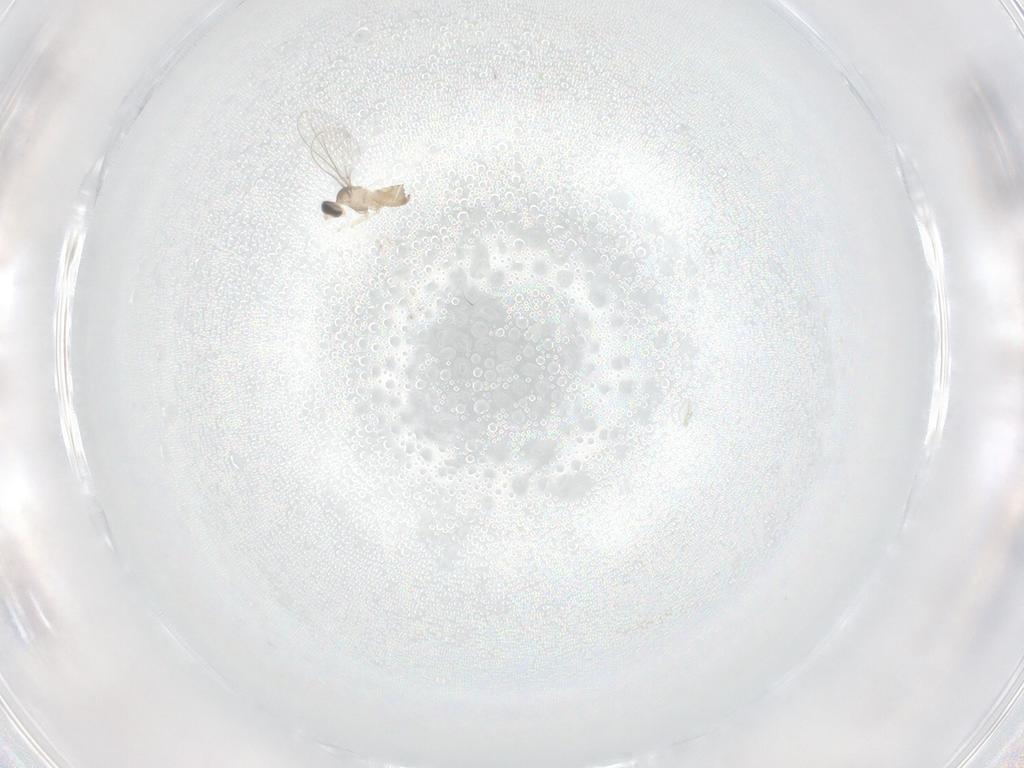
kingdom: Animalia
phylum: Arthropoda
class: Insecta
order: Diptera
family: Cecidomyiidae
